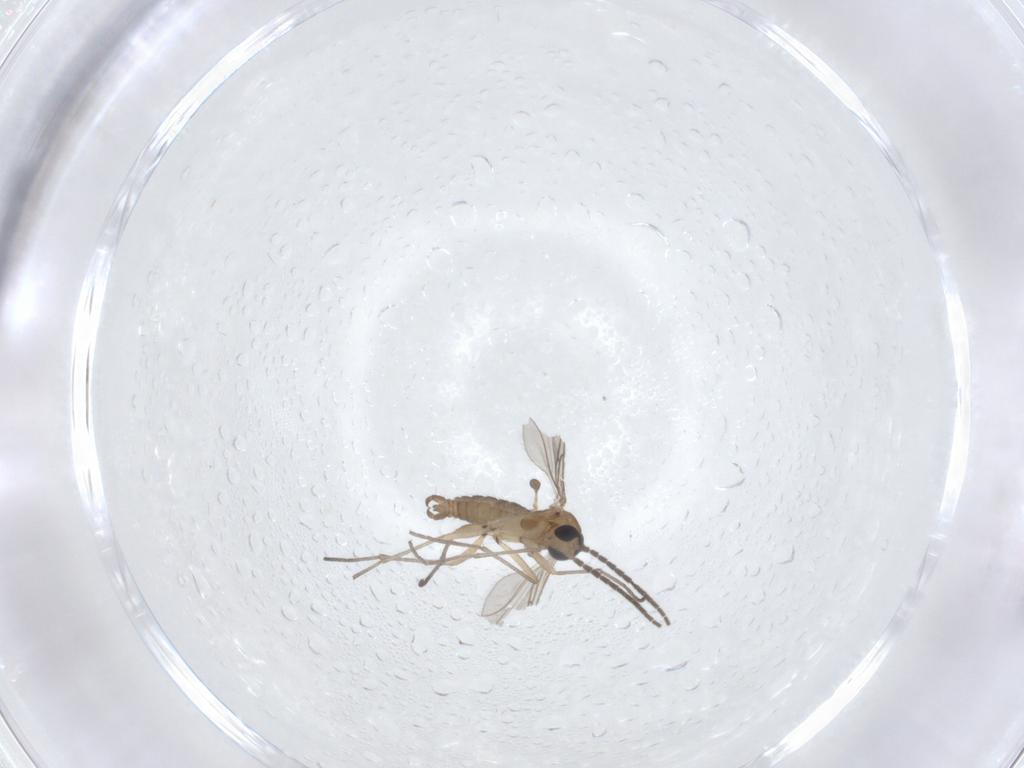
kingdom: Animalia
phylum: Arthropoda
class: Insecta
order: Diptera
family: Sciaridae
